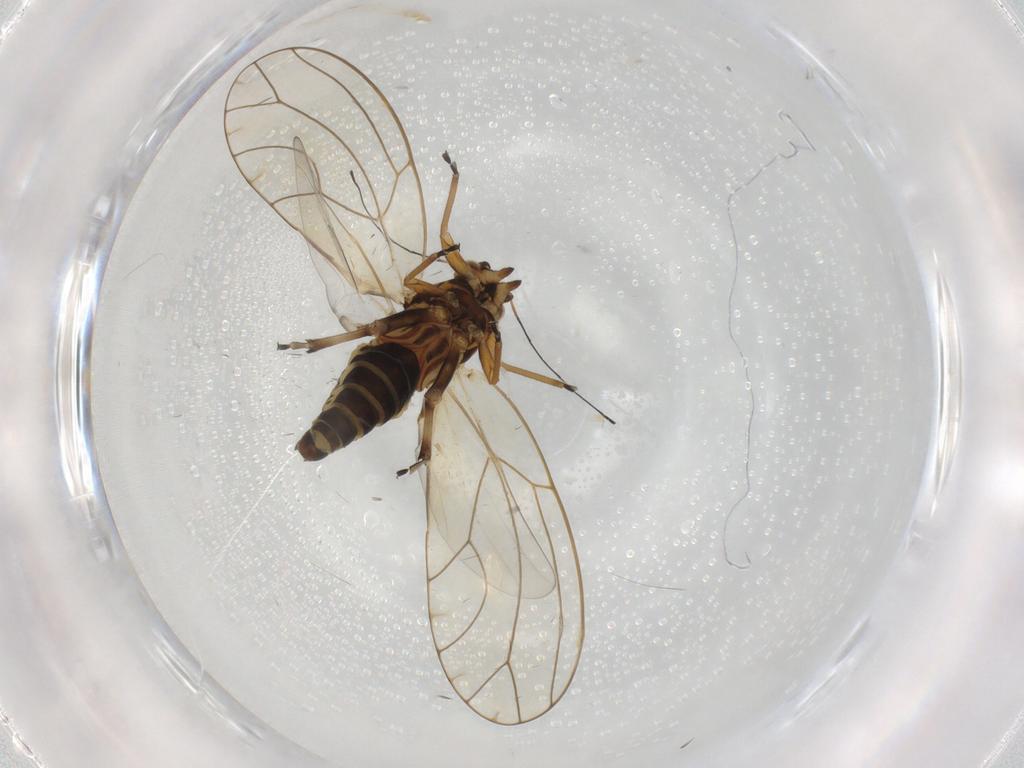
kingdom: Animalia
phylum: Arthropoda
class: Insecta
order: Hemiptera
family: Triozidae
